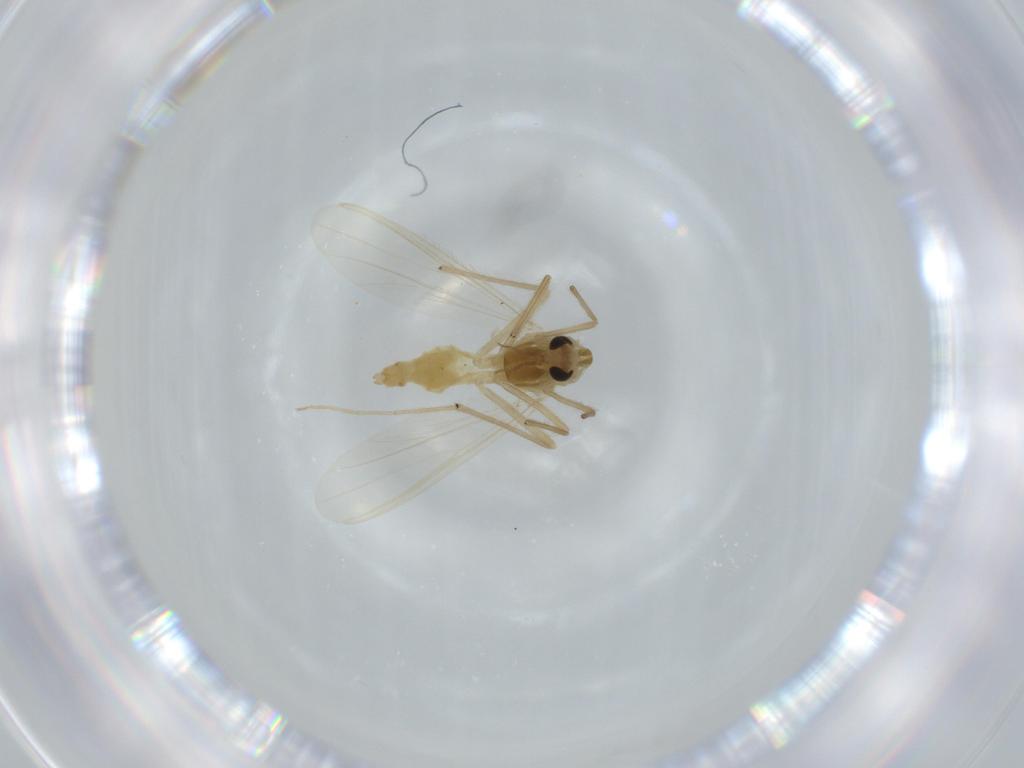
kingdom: Animalia
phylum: Arthropoda
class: Insecta
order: Diptera
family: Chironomidae
